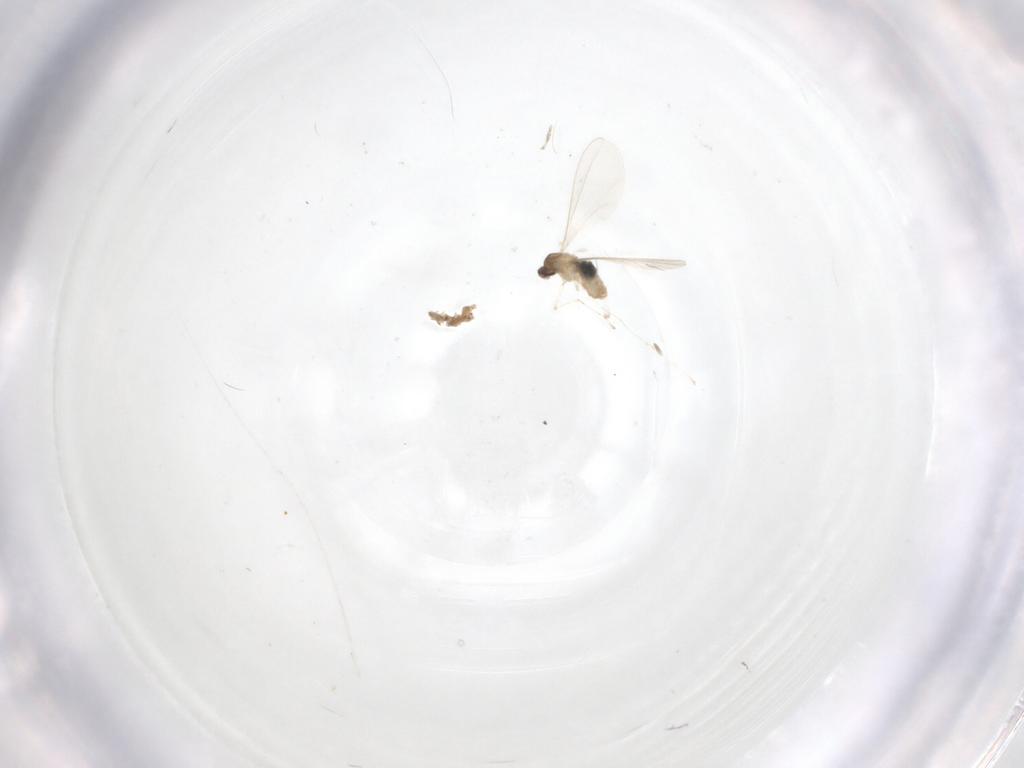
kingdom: Animalia
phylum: Arthropoda
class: Insecta
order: Diptera
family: Cecidomyiidae
